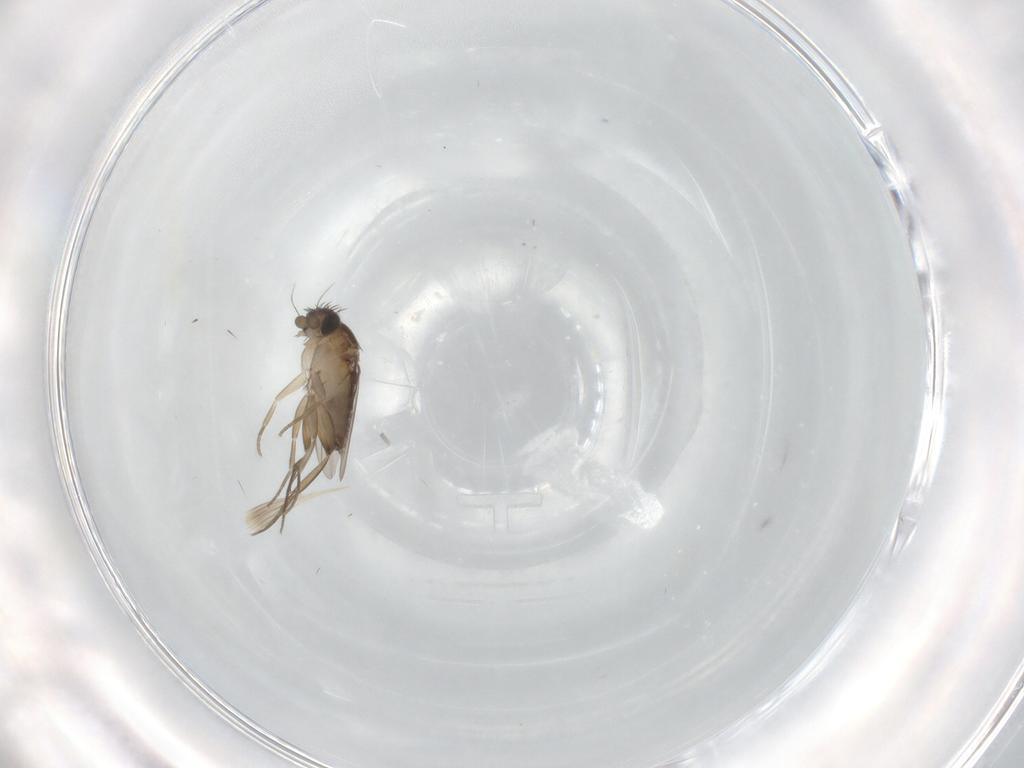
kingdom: Animalia
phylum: Arthropoda
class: Insecta
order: Diptera
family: Phoridae
